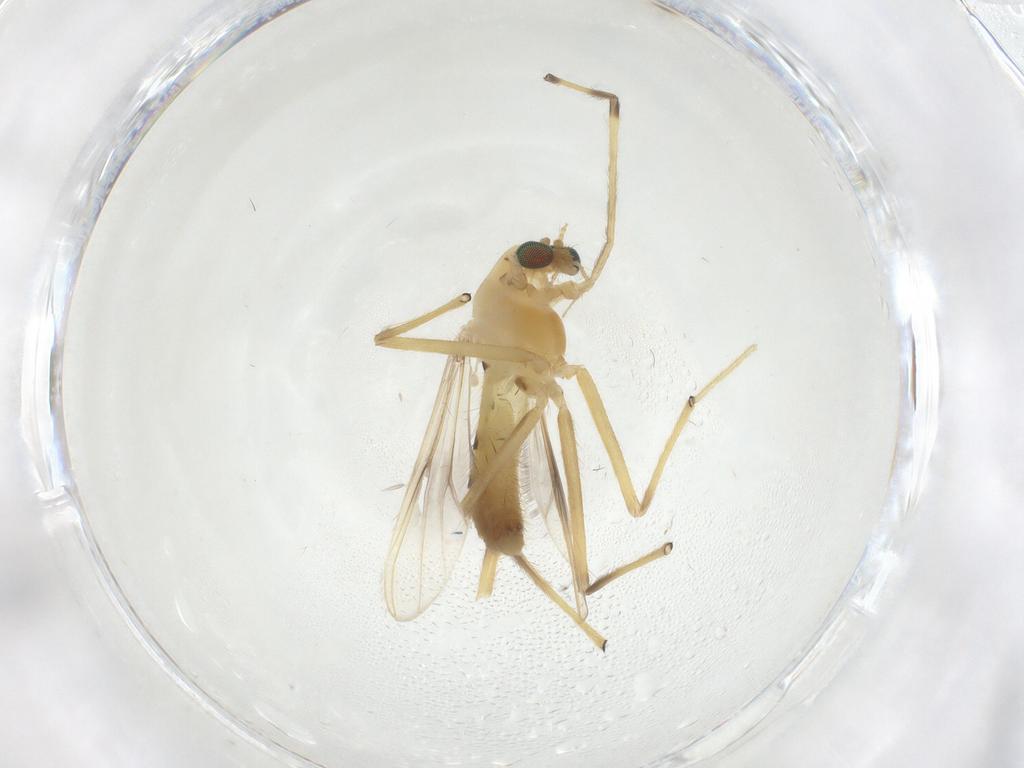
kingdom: Animalia
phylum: Arthropoda
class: Insecta
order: Diptera
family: Chironomidae
